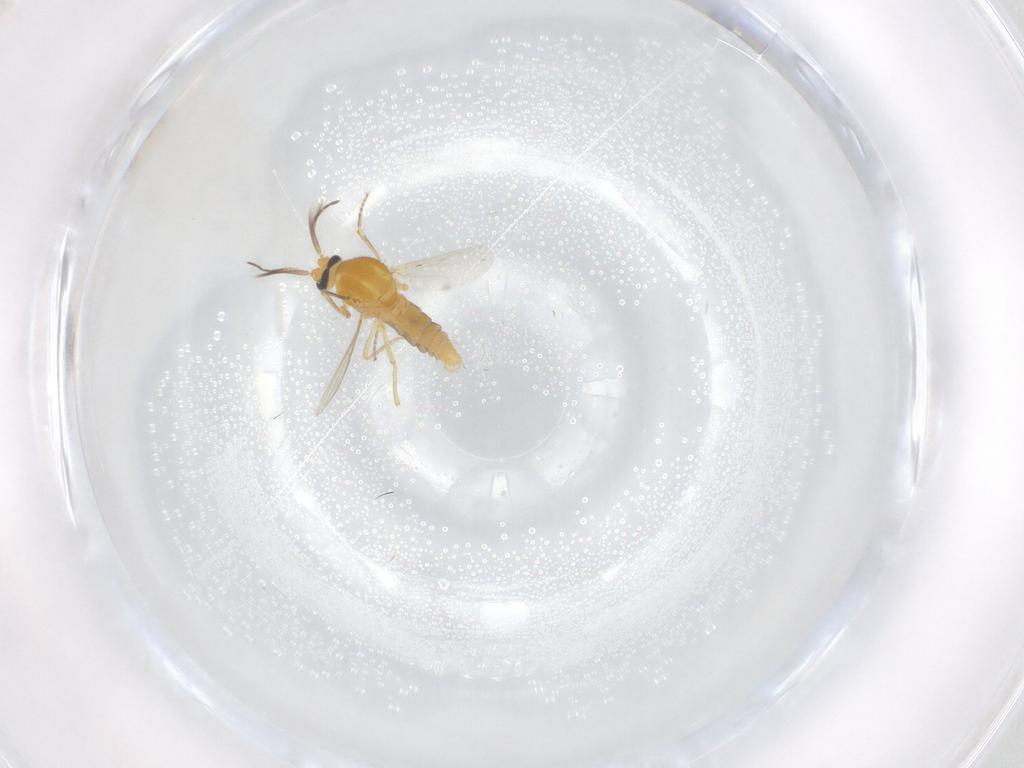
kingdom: Animalia
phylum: Arthropoda
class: Insecta
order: Diptera
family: Ceratopogonidae
